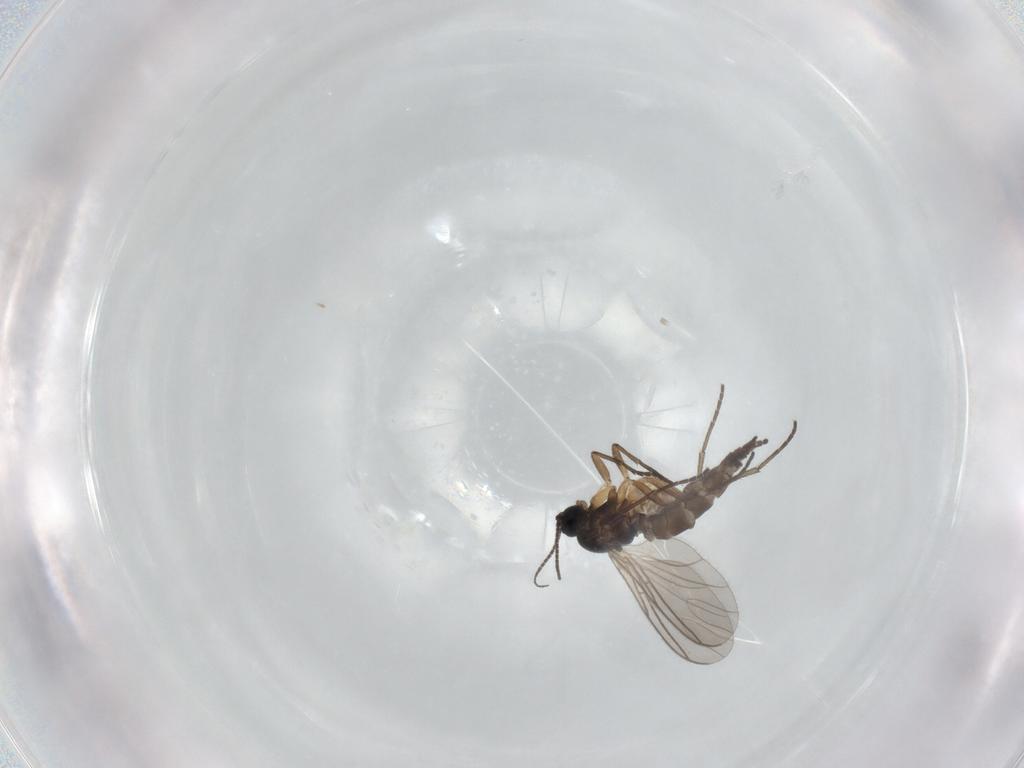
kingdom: Animalia
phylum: Arthropoda
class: Insecta
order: Diptera
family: Sciaridae
